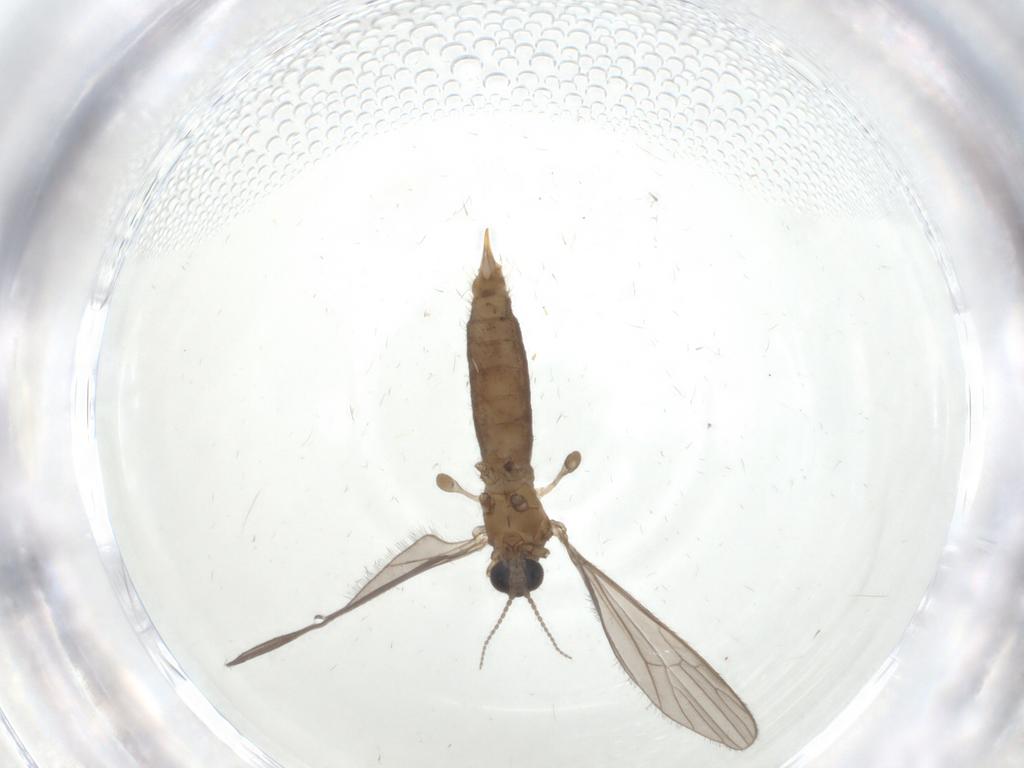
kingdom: Animalia
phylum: Arthropoda
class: Insecta
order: Diptera
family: Limoniidae
